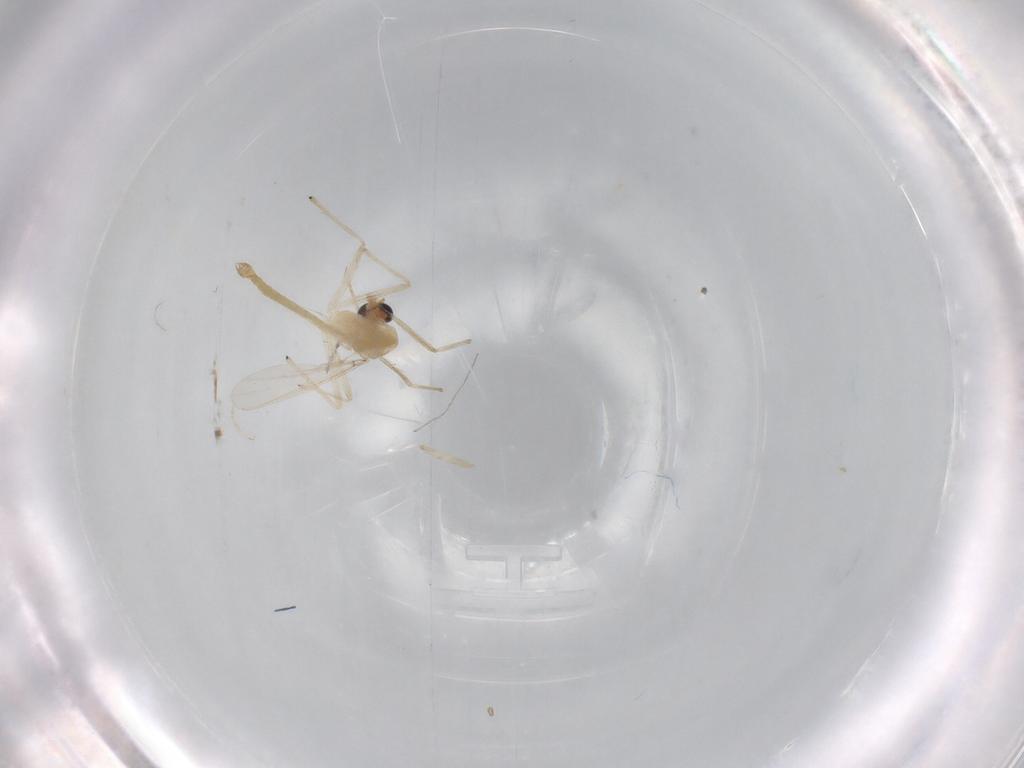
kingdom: Animalia
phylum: Arthropoda
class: Insecta
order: Diptera
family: Chironomidae
